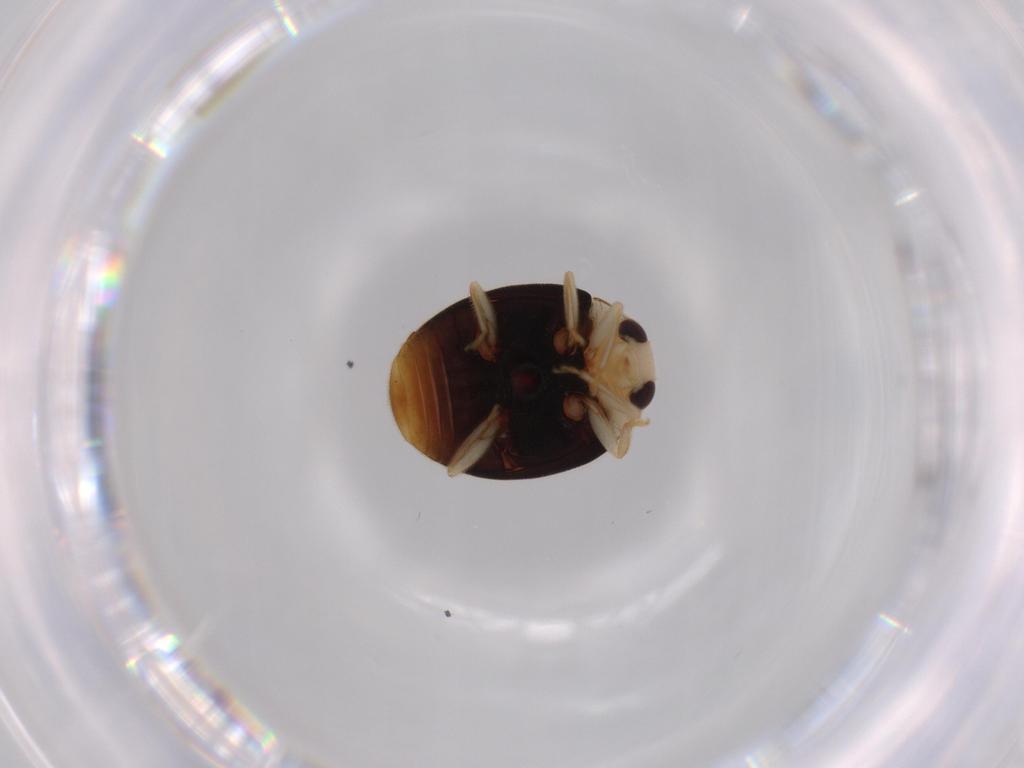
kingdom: Animalia
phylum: Arthropoda
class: Insecta
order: Coleoptera
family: Coccinellidae
